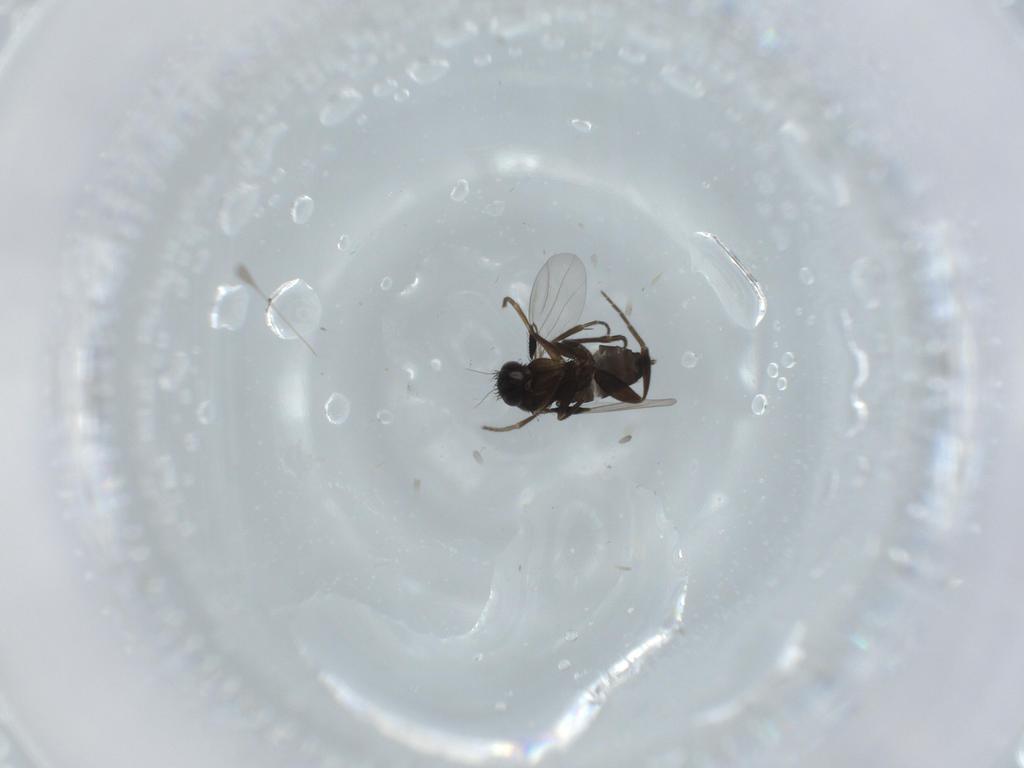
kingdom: Animalia
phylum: Arthropoda
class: Insecta
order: Diptera
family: Phoridae
